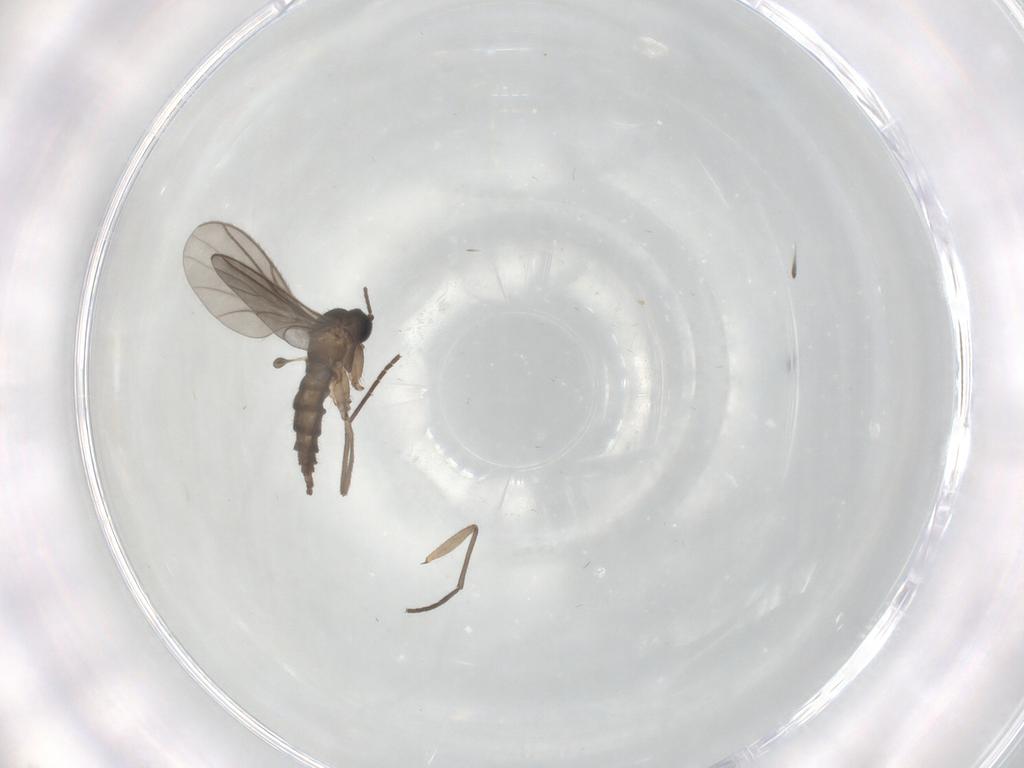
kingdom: Animalia
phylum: Arthropoda
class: Insecta
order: Diptera
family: Sciaridae
